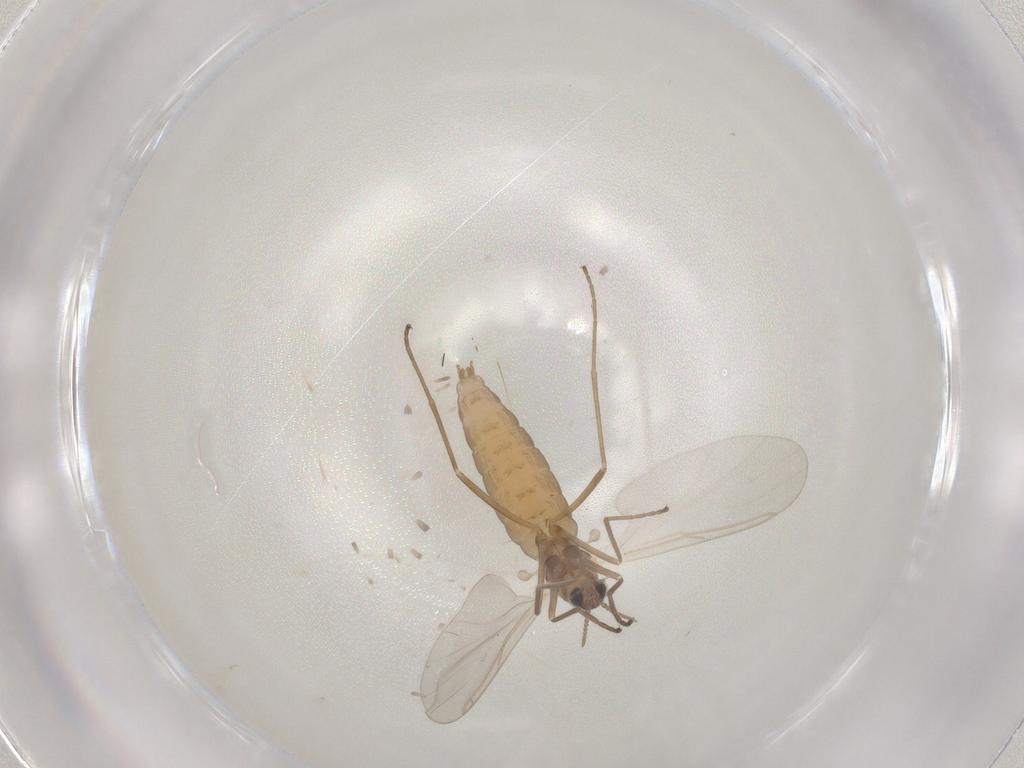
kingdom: Animalia
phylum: Arthropoda
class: Insecta
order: Diptera
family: Cecidomyiidae
